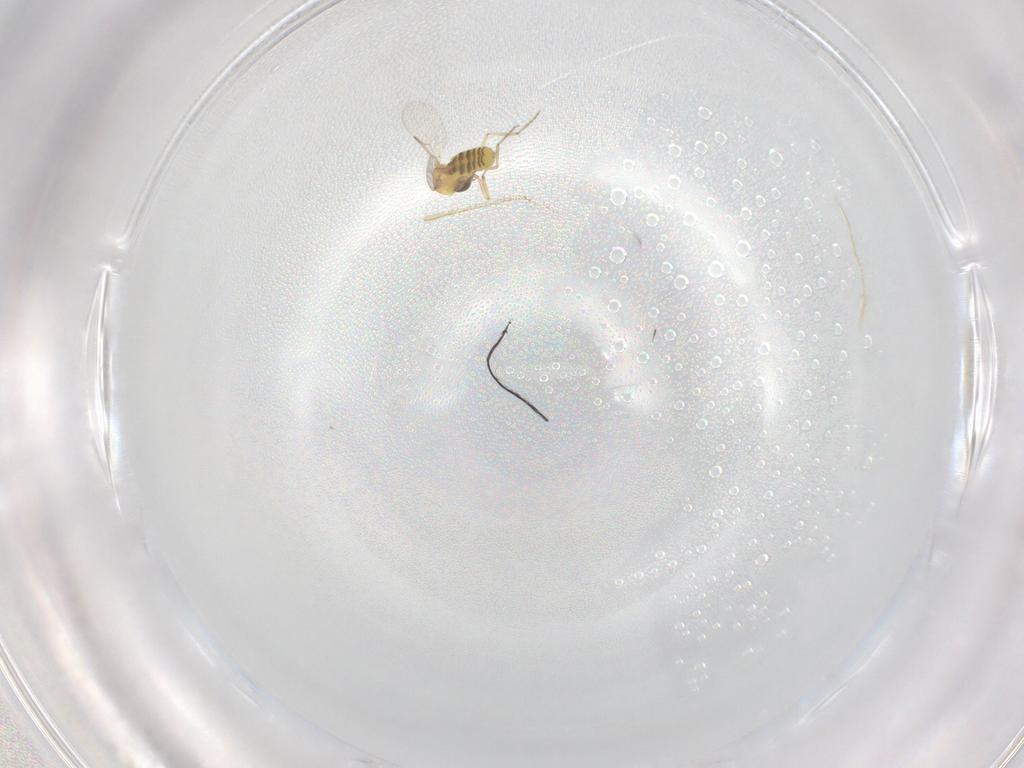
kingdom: Animalia
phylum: Arthropoda
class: Insecta
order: Diptera
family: Ceratopogonidae
